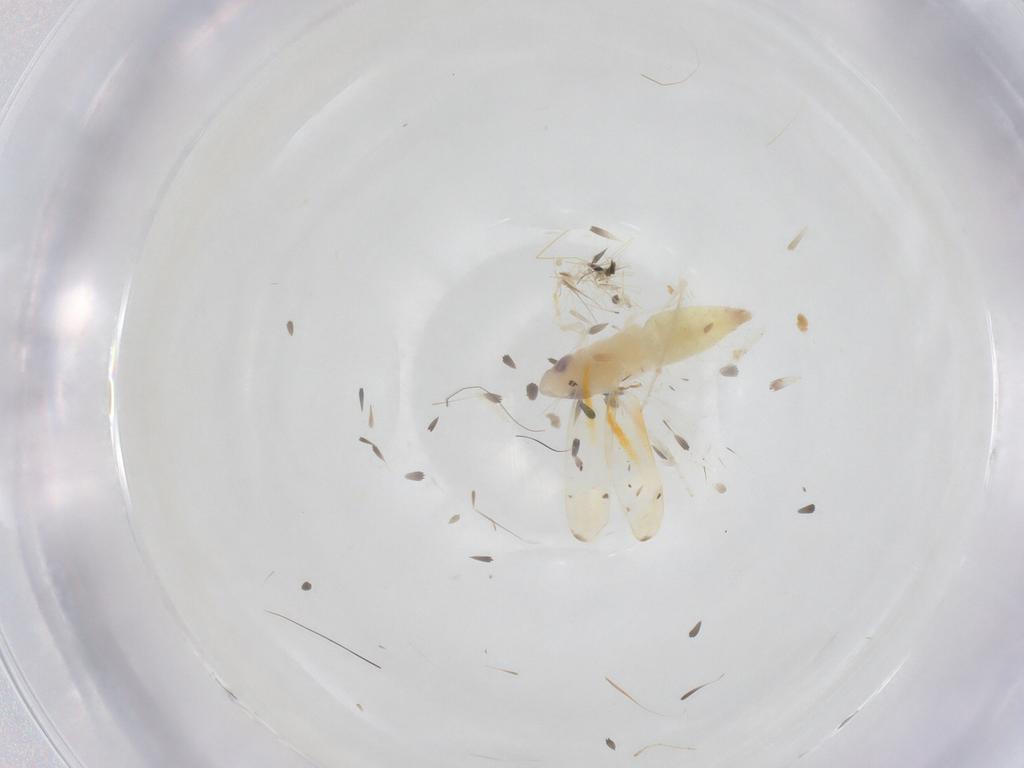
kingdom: Animalia
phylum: Arthropoda
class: Insecta
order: Hemiptera
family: Cicadellidae
